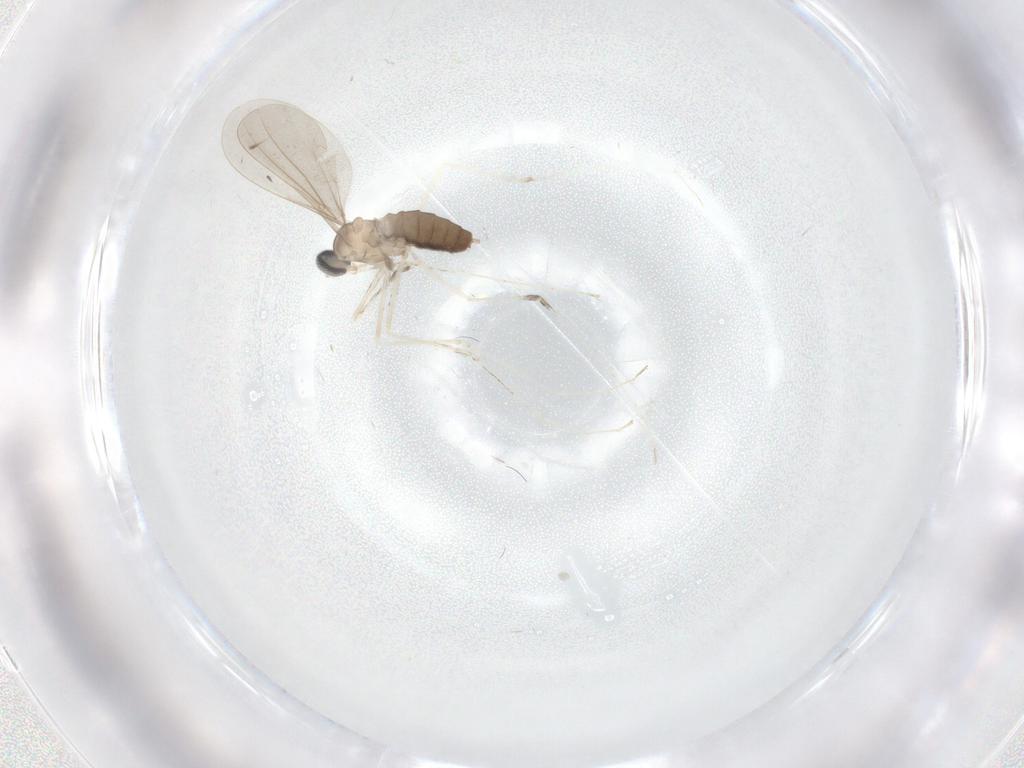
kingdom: Animalia
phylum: Arthropoda
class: Insecta
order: Diptera
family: Cecidomyiidae
